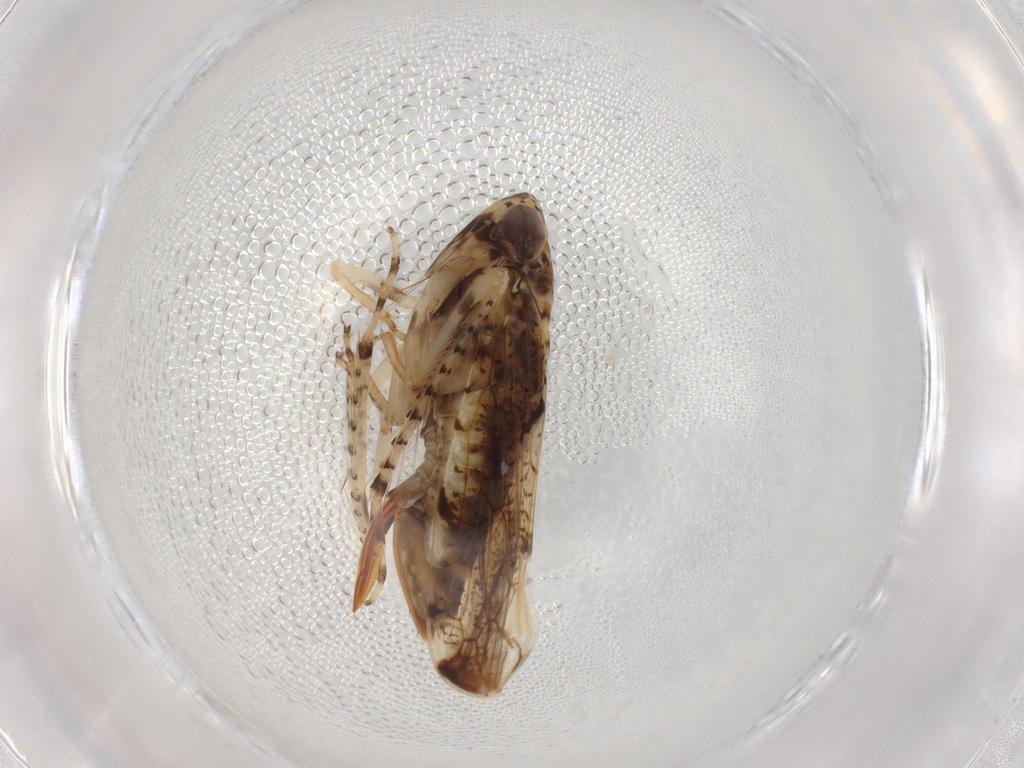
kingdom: Animalia
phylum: Arthropoda
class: Insecta
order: Hemiptera
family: Cicadellidae
